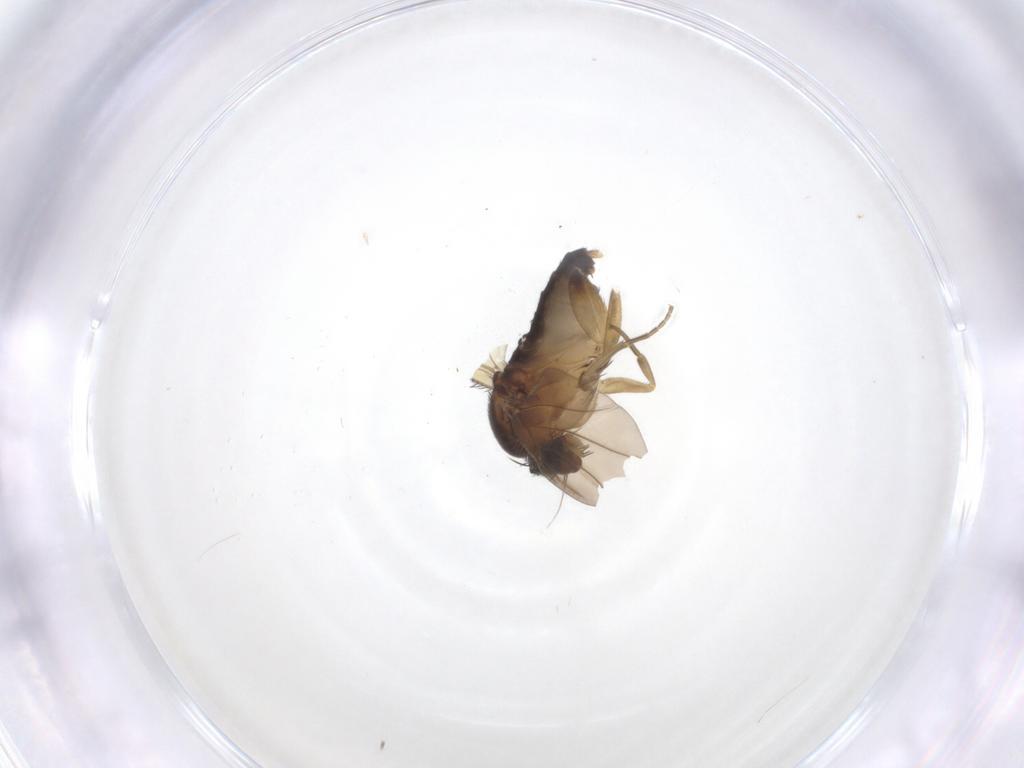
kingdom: Animalia
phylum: Arthropoda
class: Insecta
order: Diptera
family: Phoridae
